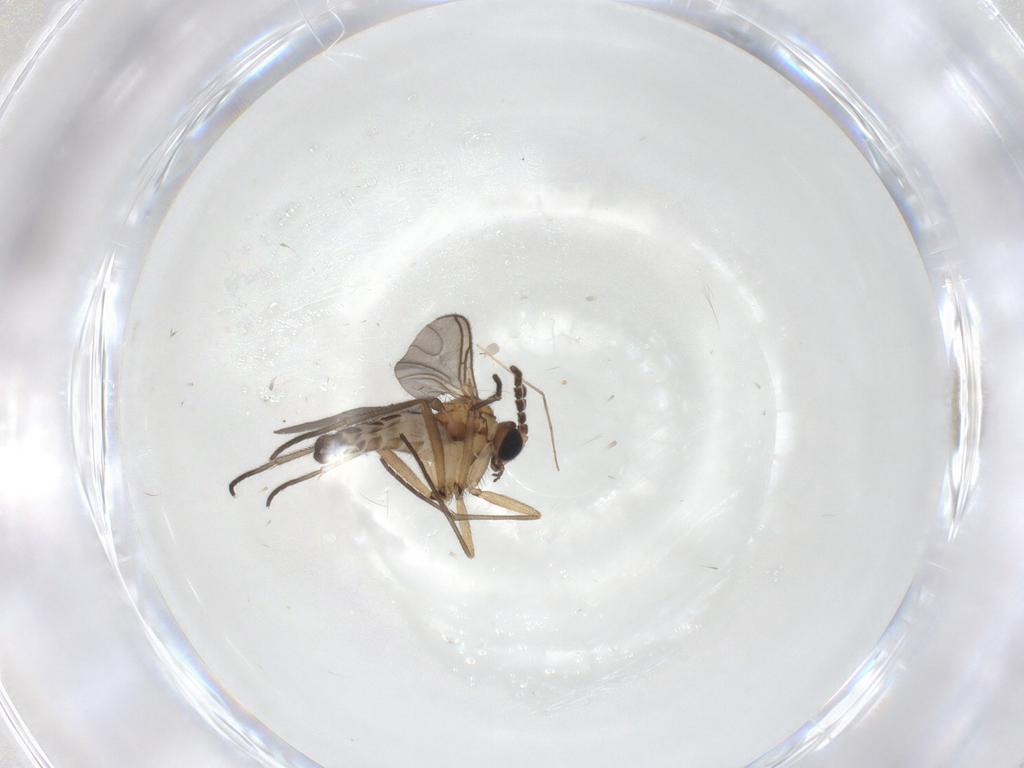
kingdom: Animalia
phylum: Arthropoda
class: Insecta
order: Diptera
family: Sciaridae
